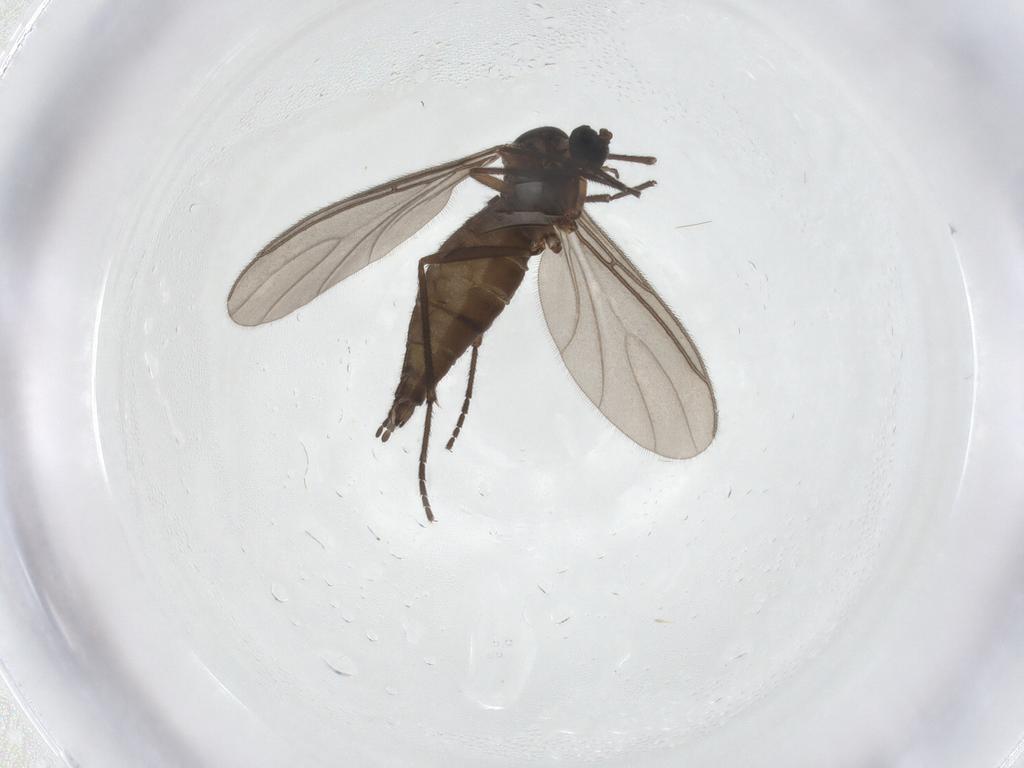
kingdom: Animalia
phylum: Arthropoda
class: Insecta
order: Diptera
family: Sciaridae
